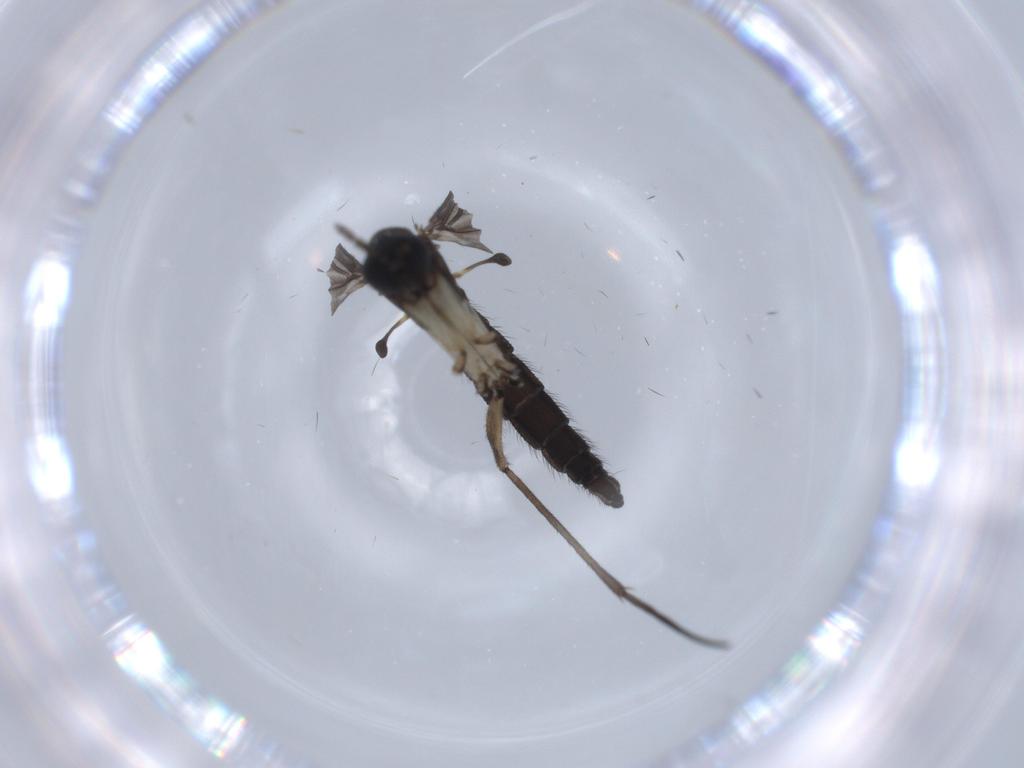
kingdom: Animalia
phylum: Arthropoda
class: Insecta
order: Diptera
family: Sciaridae
